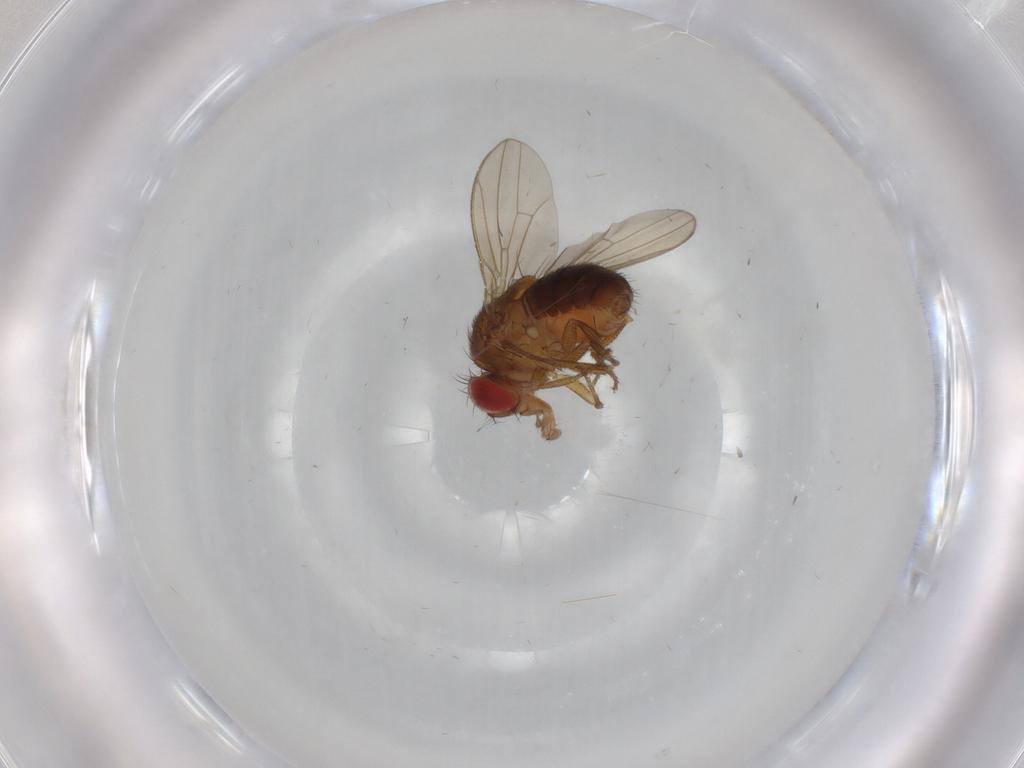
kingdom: Animalia
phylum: Arthropoda
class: Insecta
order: Diptera
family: Drosophilidae
